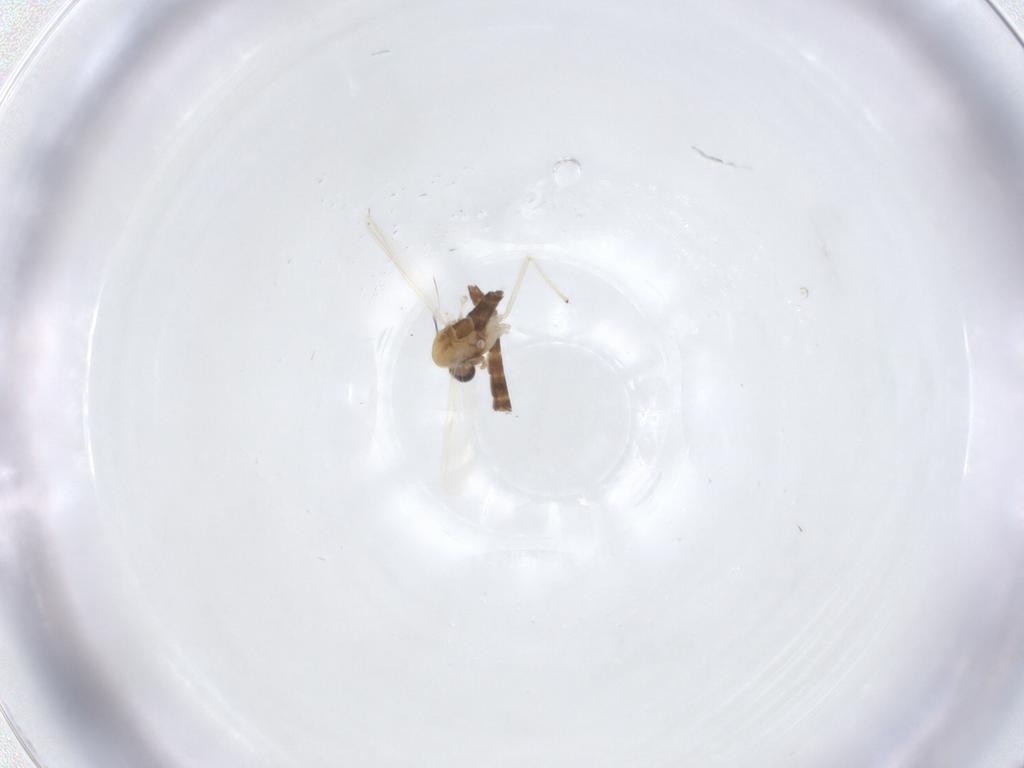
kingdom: Animalia
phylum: Arthropoda
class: Insecta
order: Diptera
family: Chironomidae
